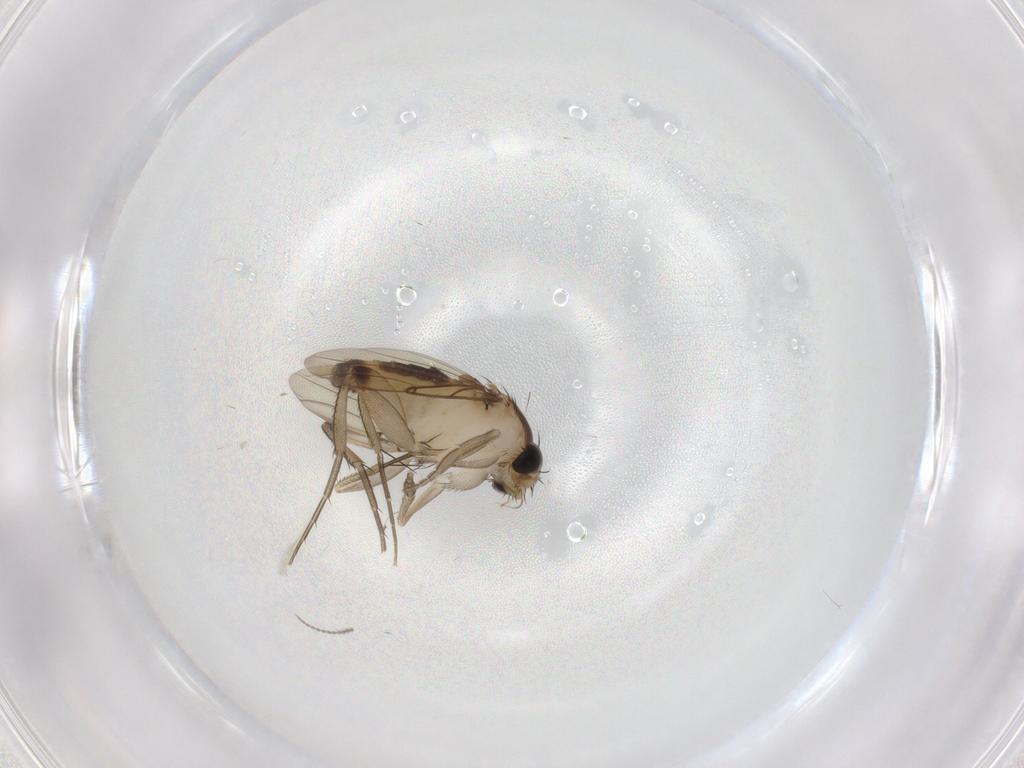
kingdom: Animalia
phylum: Arthropoda
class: Insecta
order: Diptera
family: Phoridae
